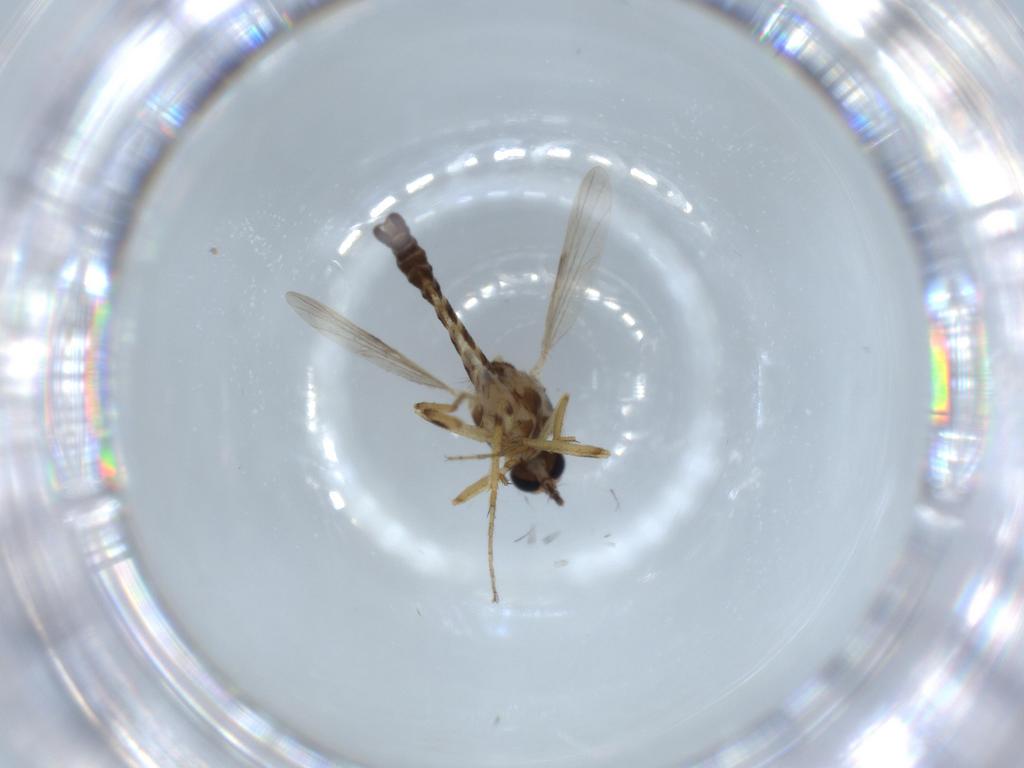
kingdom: Animalia
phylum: Arthropoda
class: Insecta
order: Diptera
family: Ceratopogonidae
